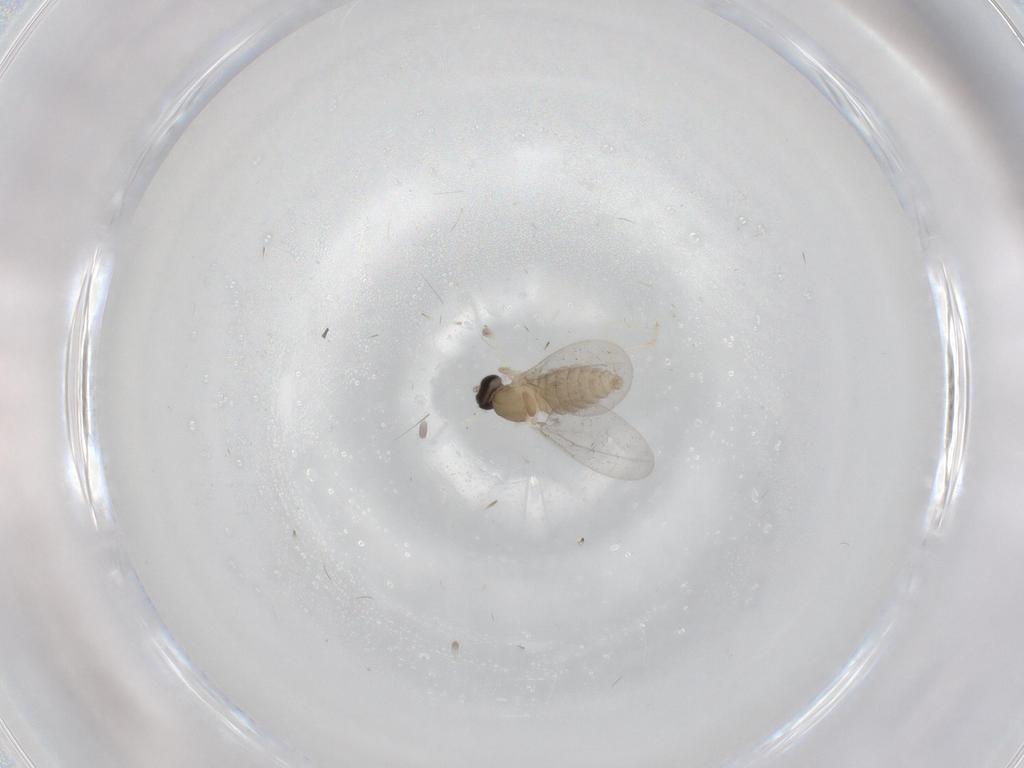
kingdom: Animalia
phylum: Arthropoda
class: Insecta
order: Diptera
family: Cecidomyiidae
